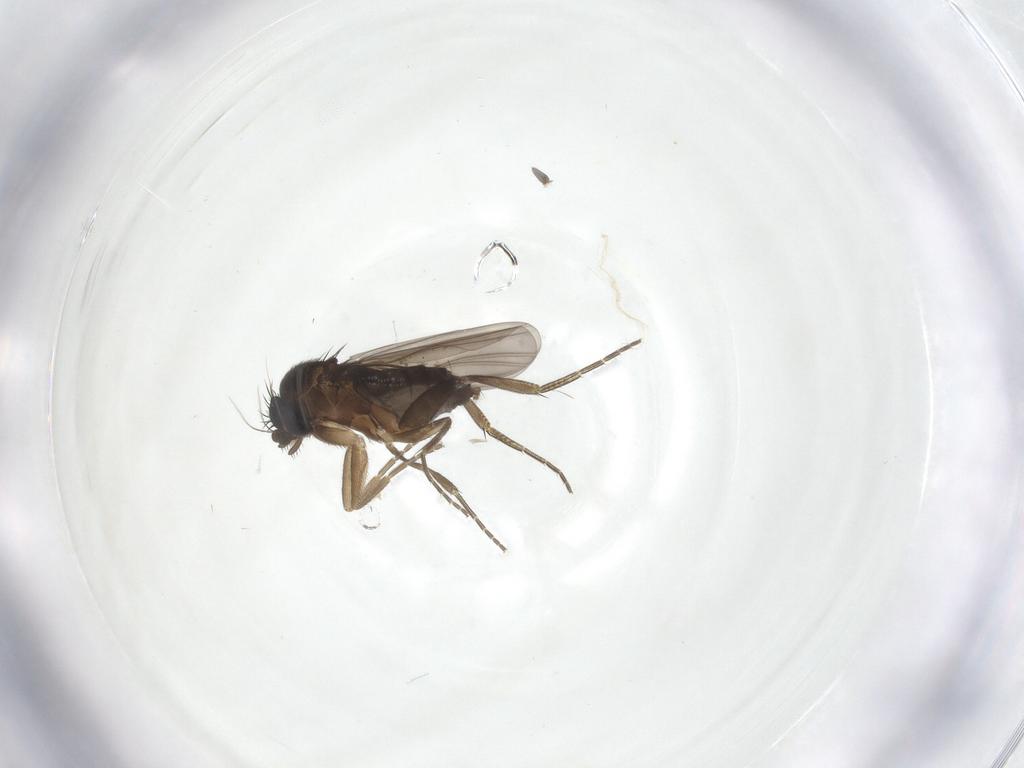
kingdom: Animalia
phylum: Arthropoda
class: Insecta
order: Diptera
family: Phoridae
